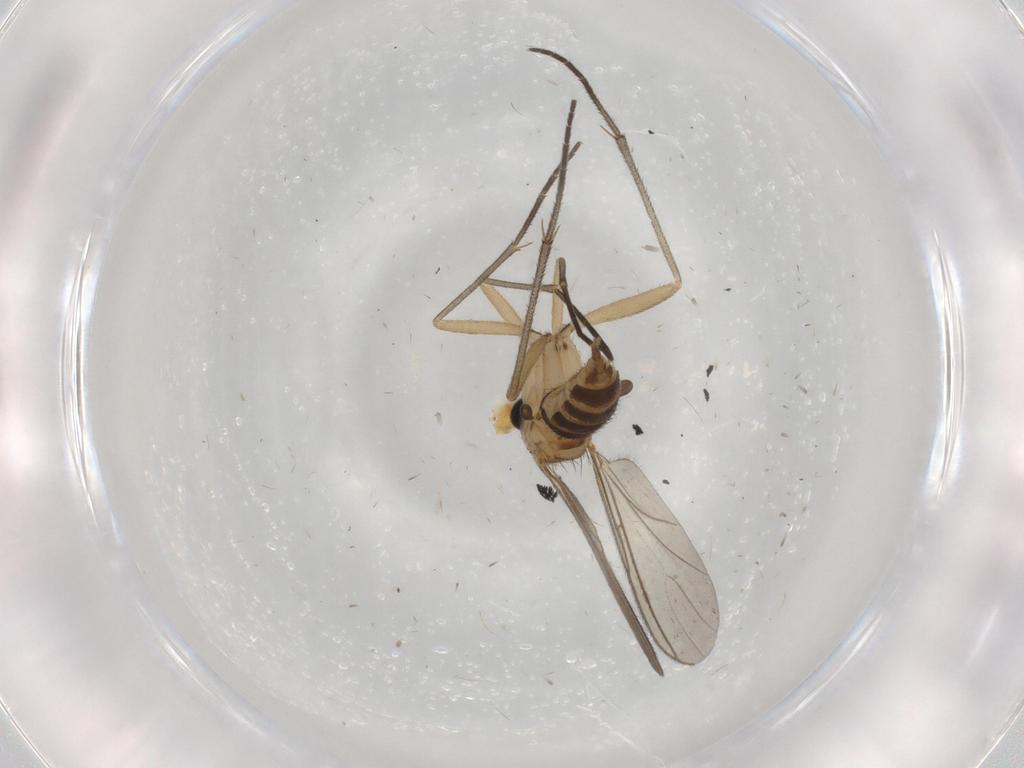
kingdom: Animalia
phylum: Arthropoda
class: Insecta
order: Diptera
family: Sciaridae
